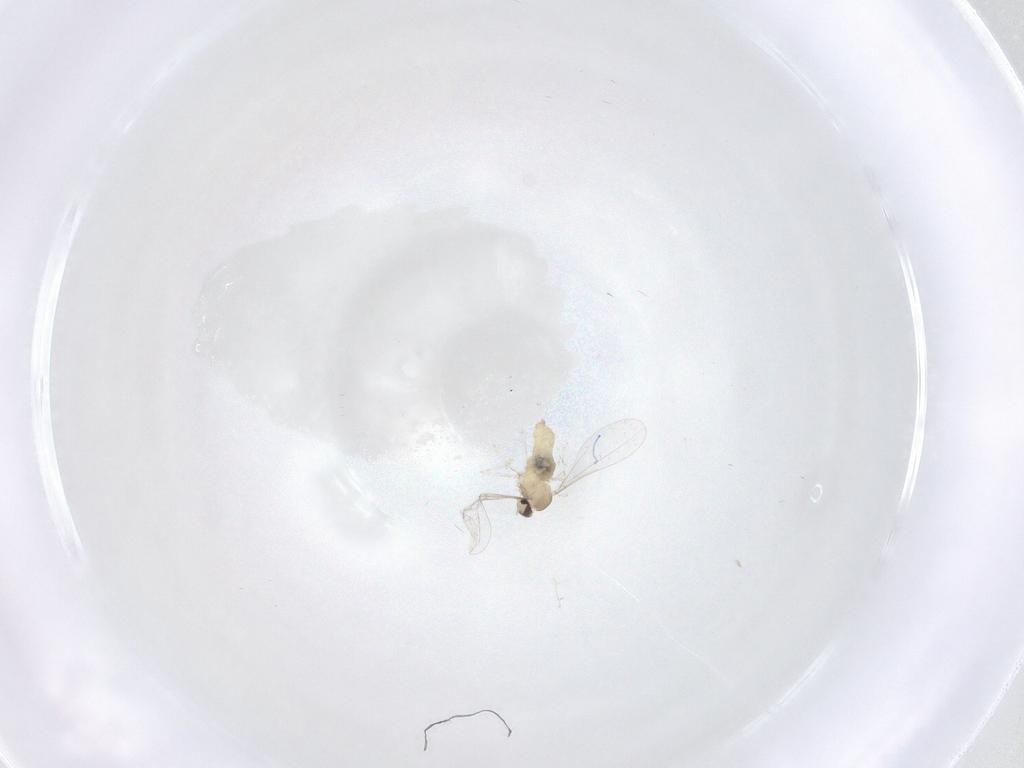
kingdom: Animalia
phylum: Arthropoda
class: Insecta
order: Diptera
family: Cecidomyiidae
